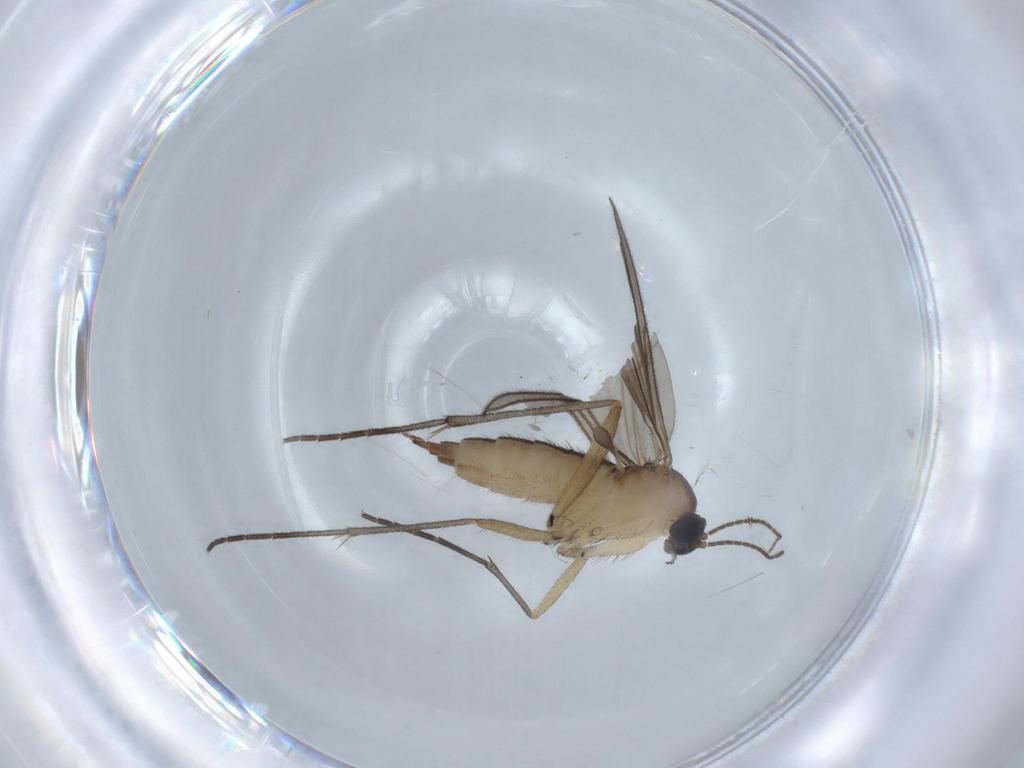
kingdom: Animalia
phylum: Arthropoda
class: Insecta
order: Diptera
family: Sciaridae
